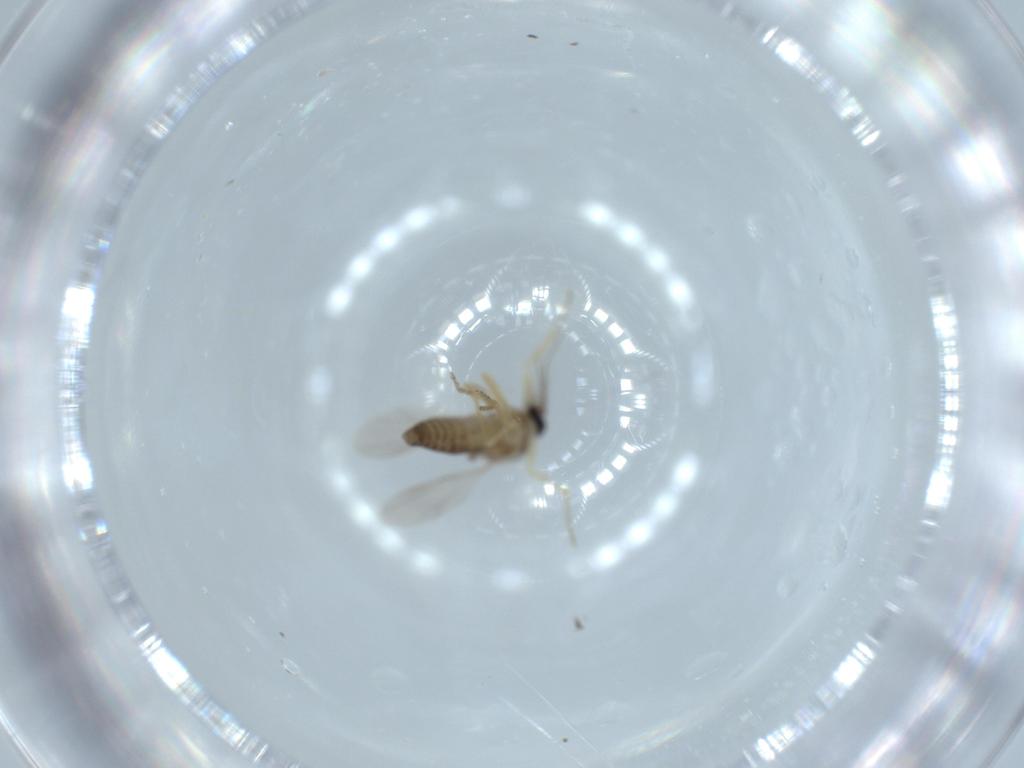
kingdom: Animalia
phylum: Arthropoda
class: Insecta
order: Diptera
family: Ceratopogonidae
